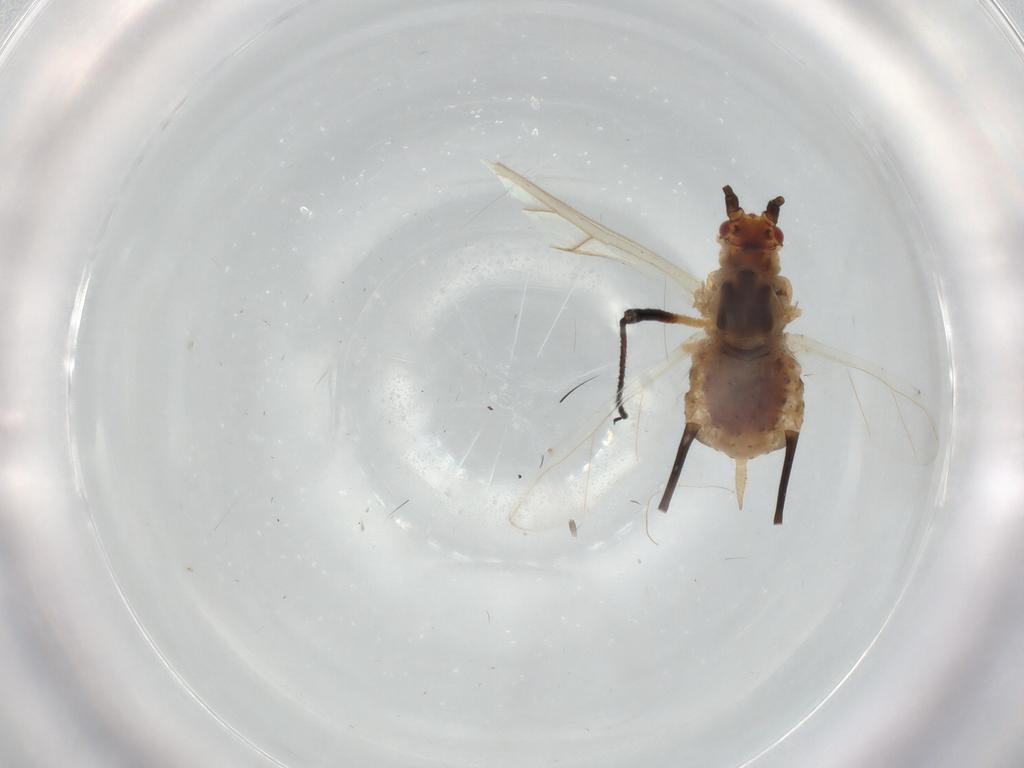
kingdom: Animalia
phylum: Arthropoda
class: Insecta
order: Hemiptera
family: Aphididae
